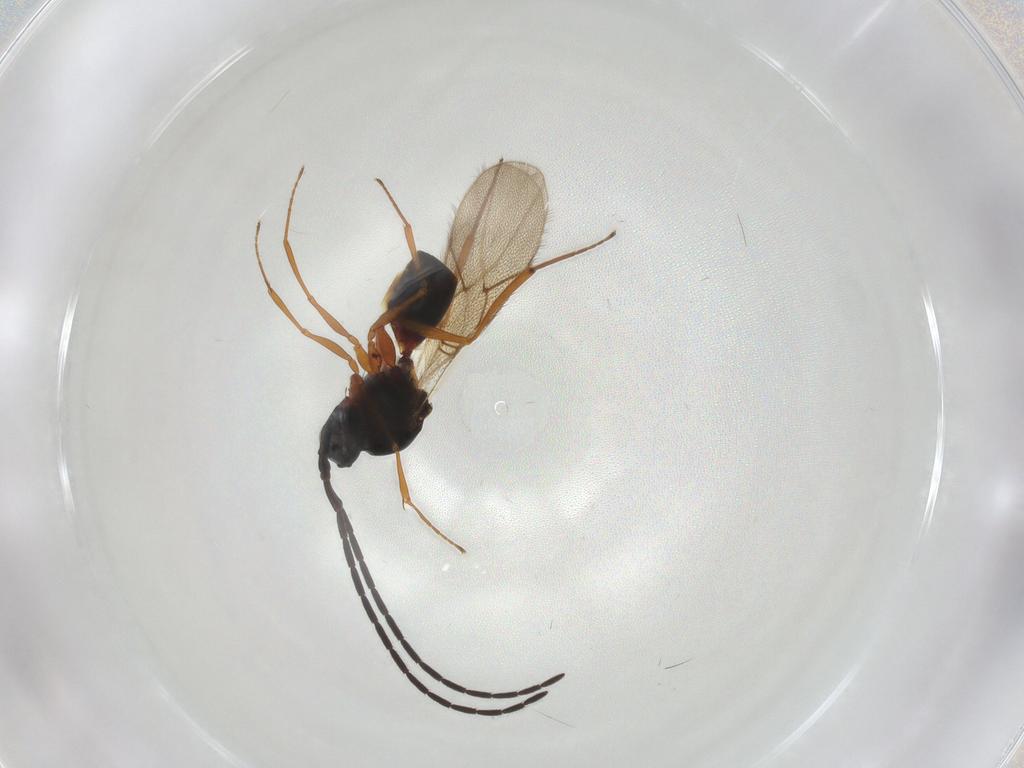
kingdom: Animalia
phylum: Arthropoda
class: Insecta
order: Hymenoptera
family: Figitidae
